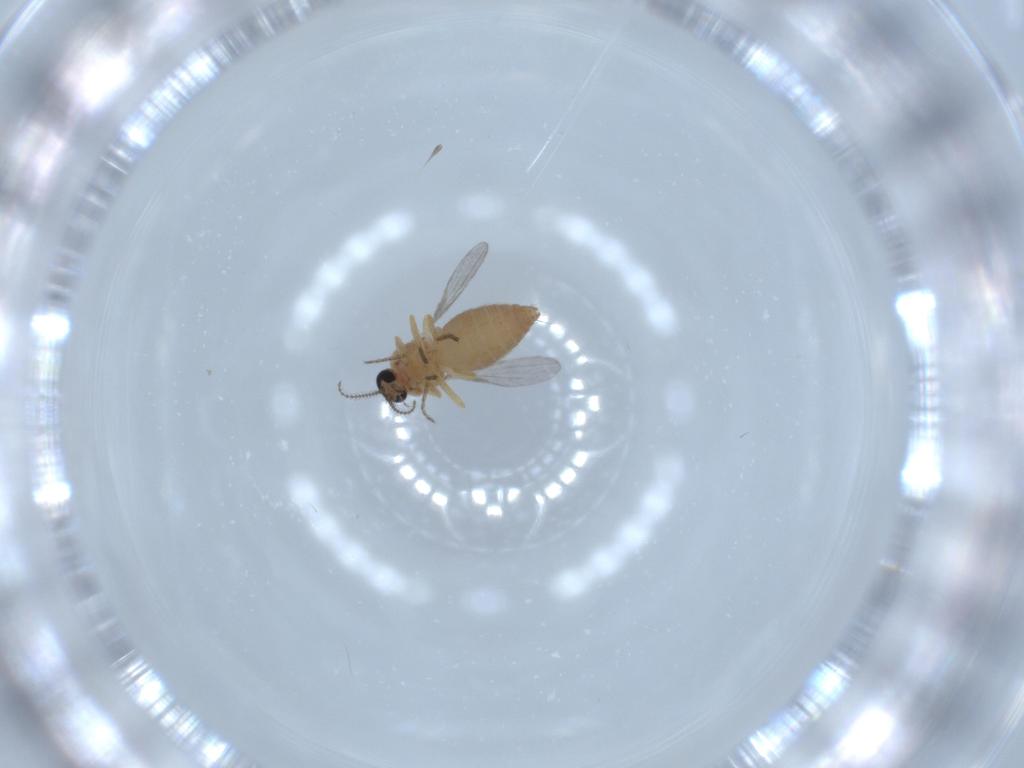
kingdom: Animalia
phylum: Arthropoda
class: Insecta
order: Diptera
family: Ceratopogonidae
